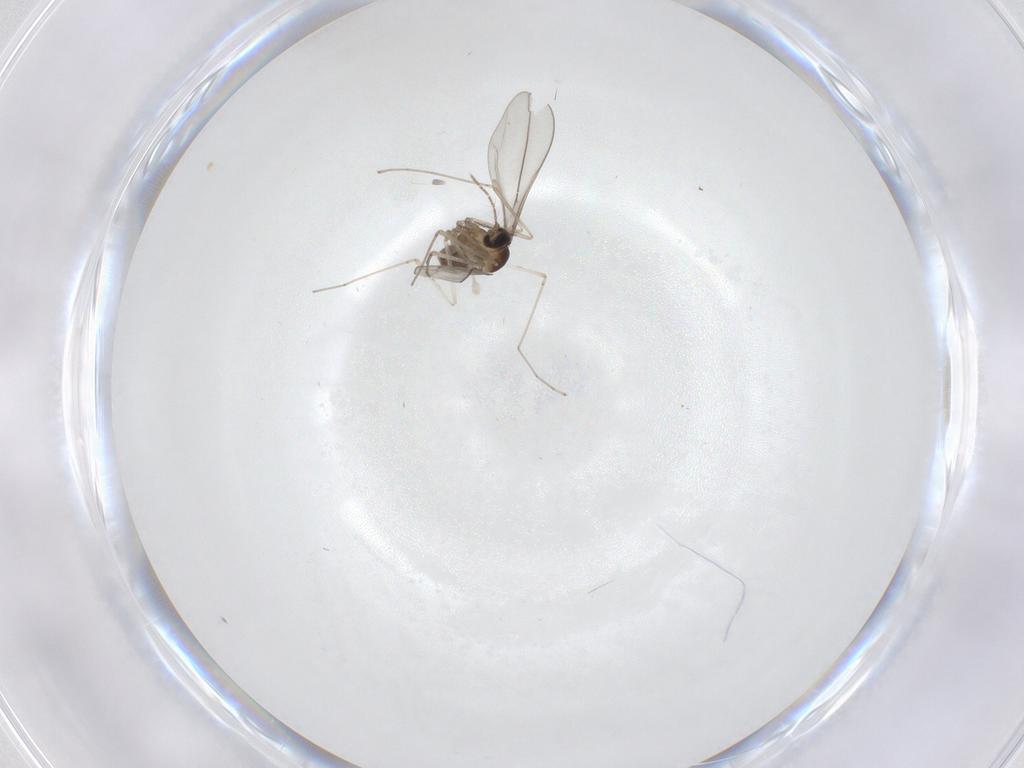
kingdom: Animalia
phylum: Arthropoda
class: Insecta
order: Diptera
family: Cecidomyiidae
